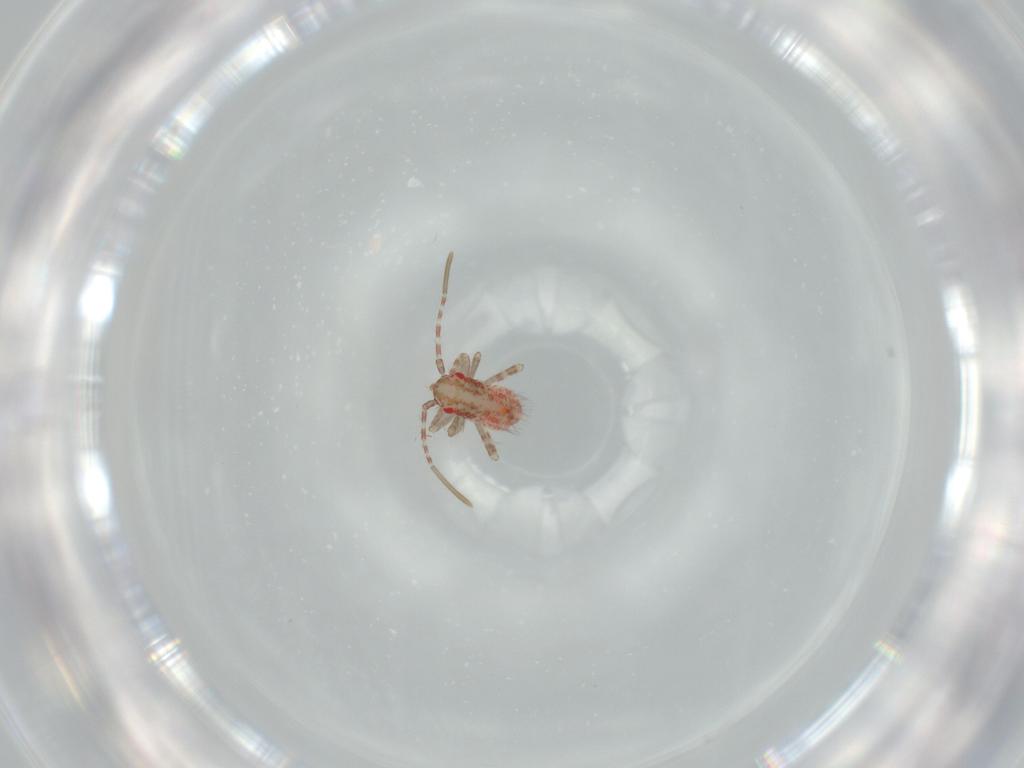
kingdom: Animalia
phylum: Arthropoda
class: Insecta
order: Hemiptera
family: Miridae
